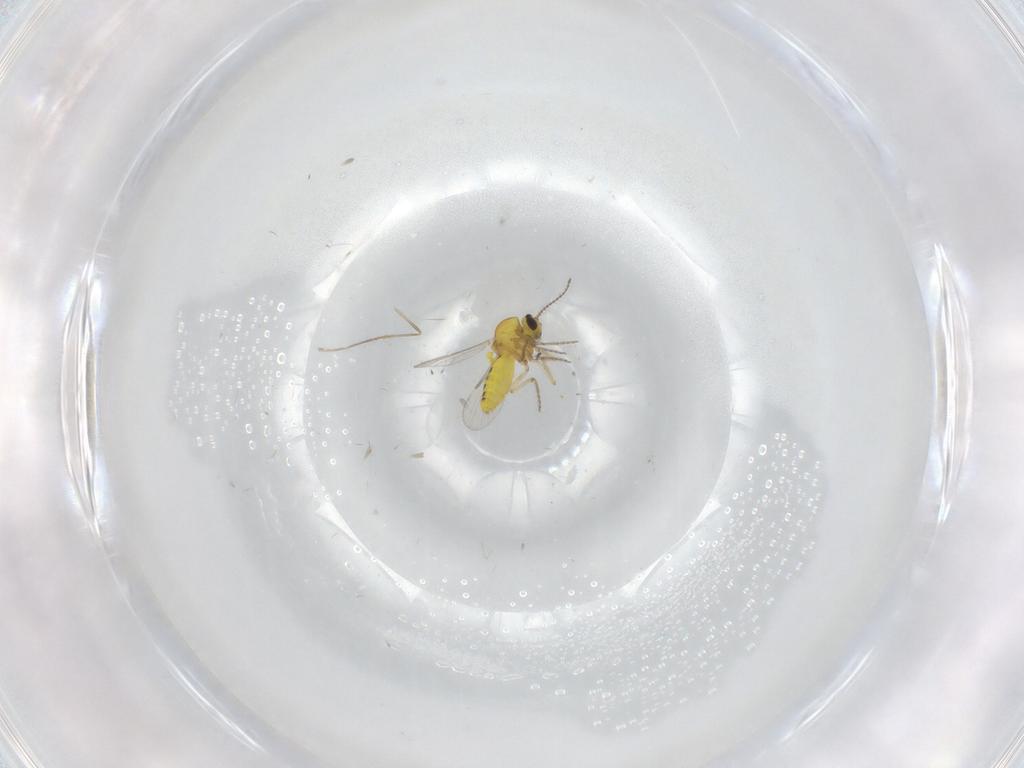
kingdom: Animalia
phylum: Arthropoda
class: Insecta
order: Diptera
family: Ceratopogonidae
